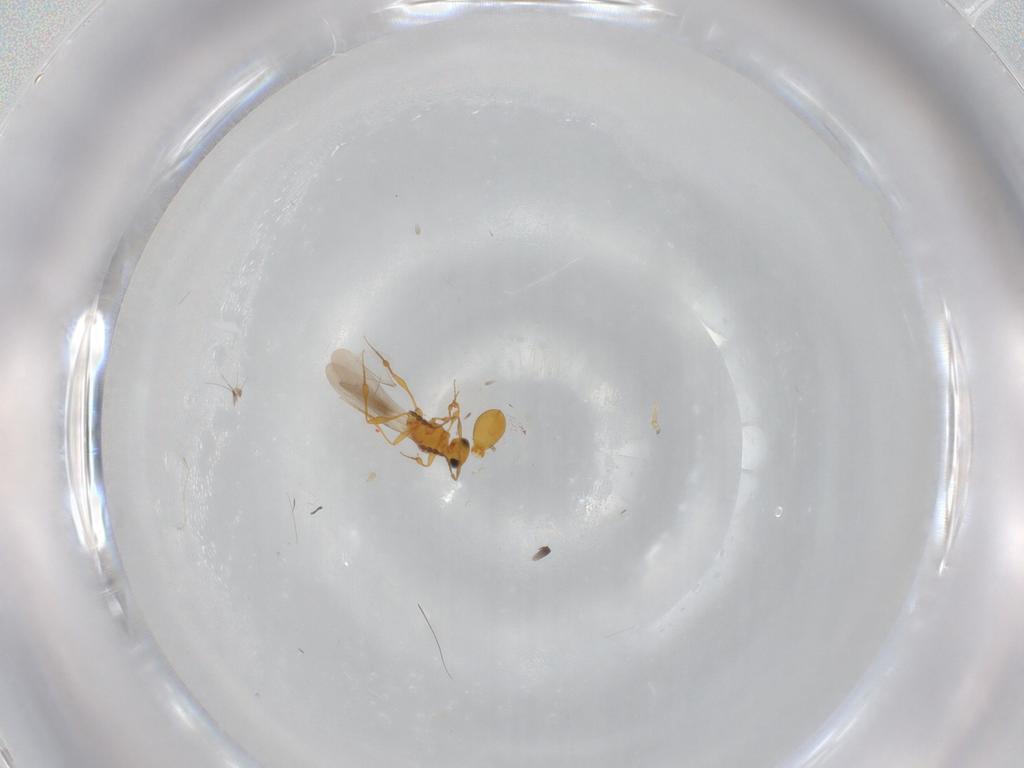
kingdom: Animalia
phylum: Arthropoda
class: Insecta
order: Hymenoptera
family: Platygastridae
